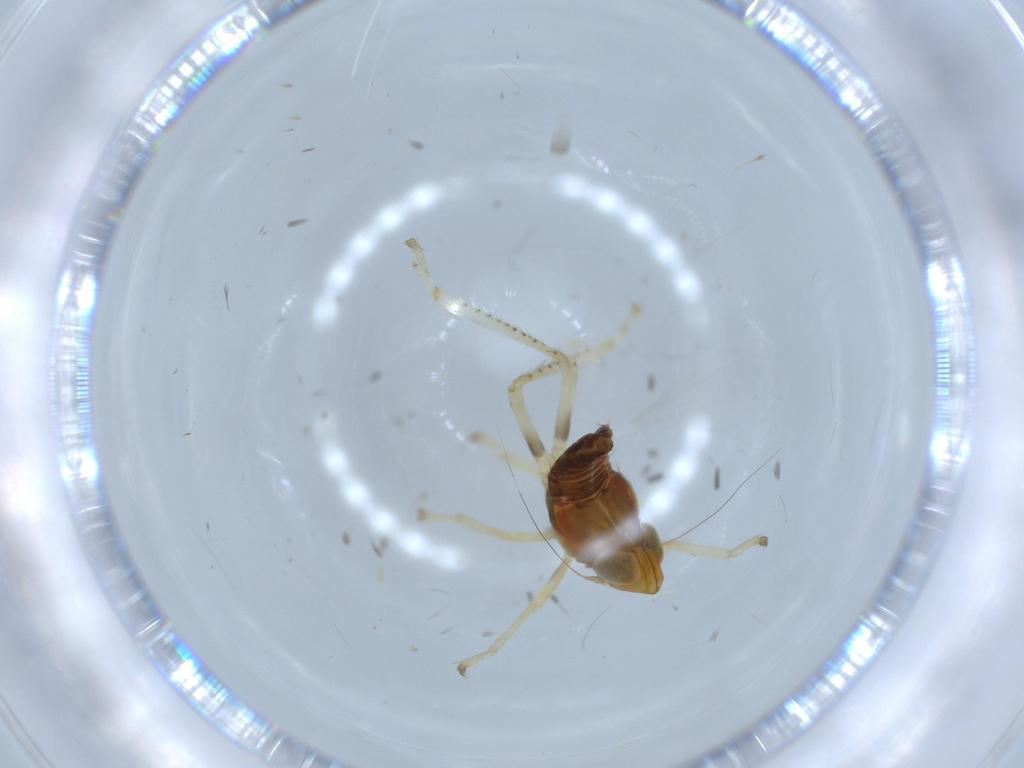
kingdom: Animalia
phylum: Arthropoda
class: Insecta
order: Hemiptera
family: Cicadellidae
